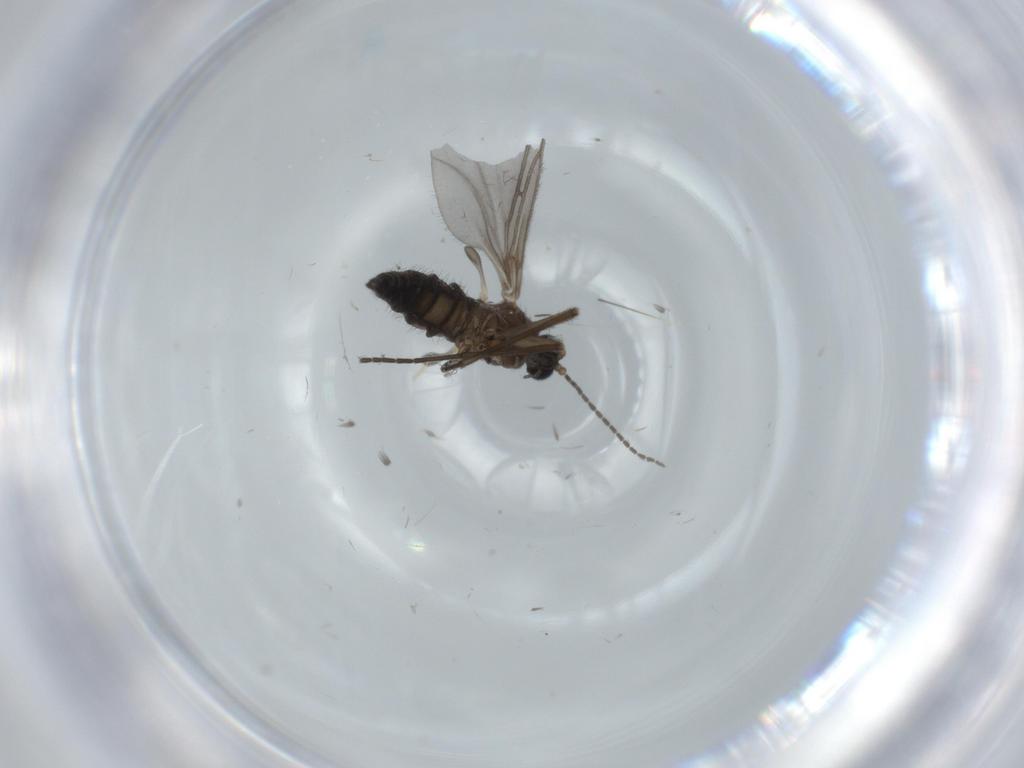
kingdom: Animalia
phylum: Arthropoda
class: Insecta
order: Diptera
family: Sciaridae
